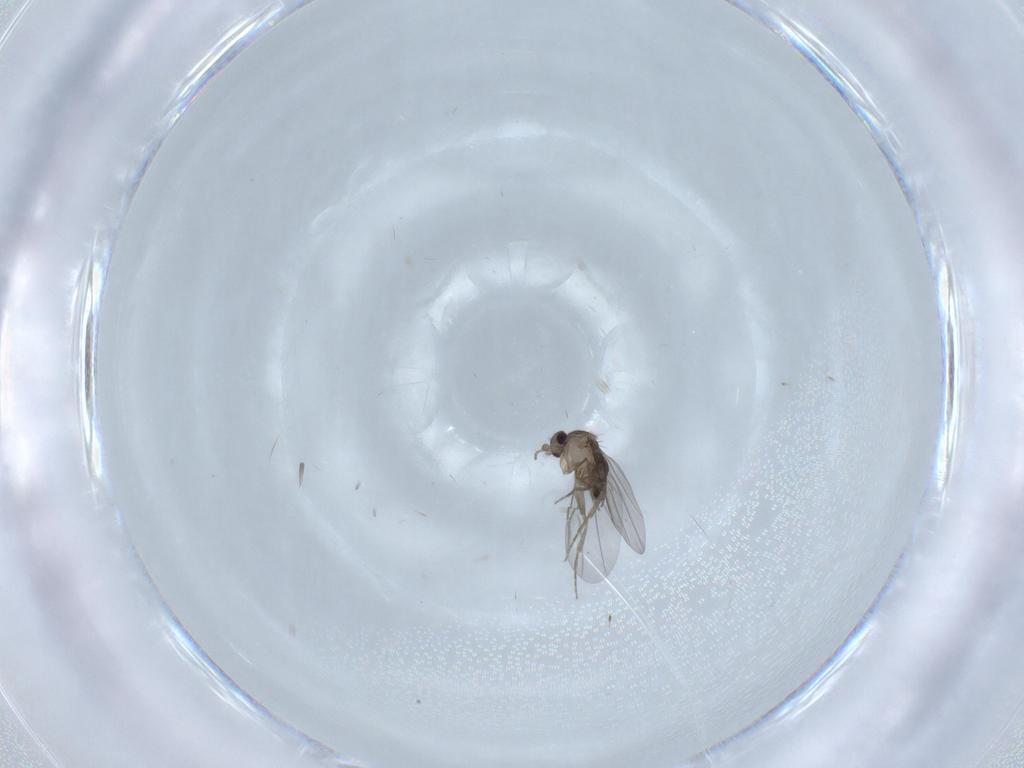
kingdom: Animalia
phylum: Arthropoda
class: Insecta
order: Diptera
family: Phoridae
